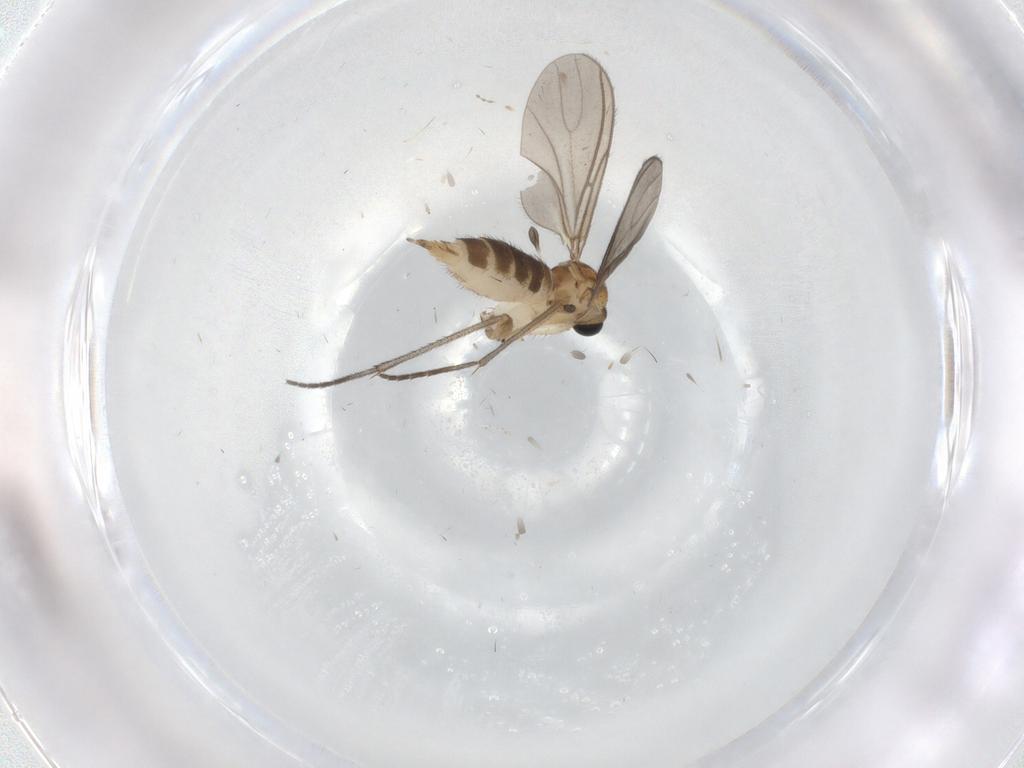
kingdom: Animalia
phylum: Arthropoda
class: Insecta
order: Diptera
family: Sciaridae
